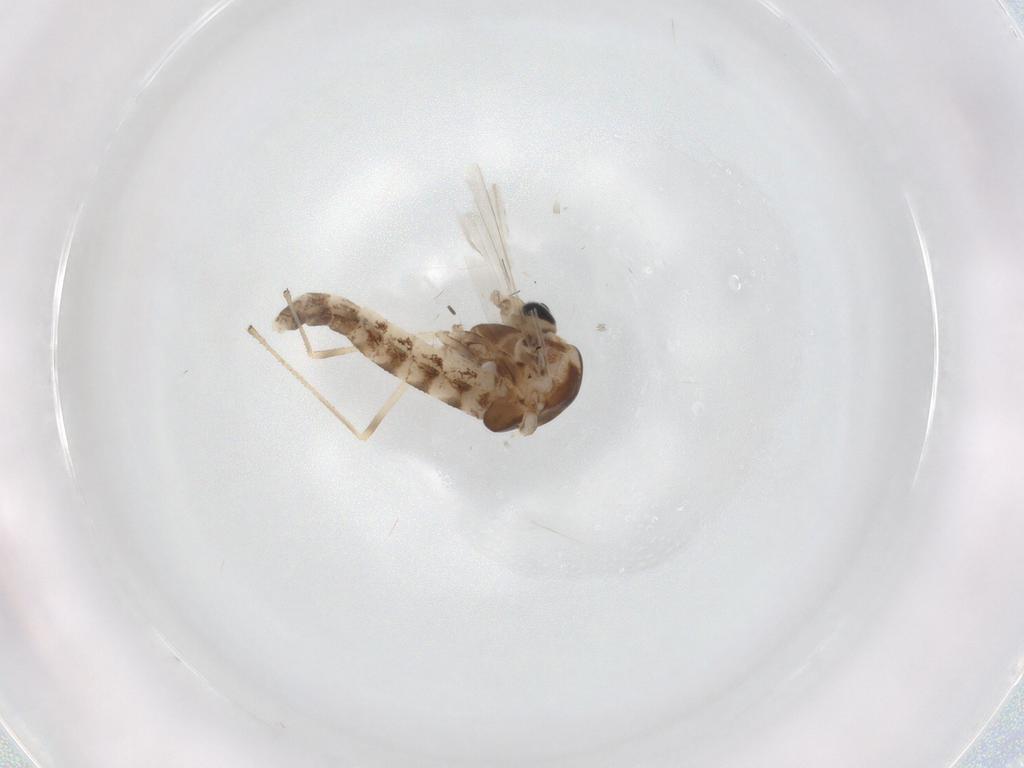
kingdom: Animalia
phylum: Arthropoda
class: Insecta
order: Diptera
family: Chironomidae
